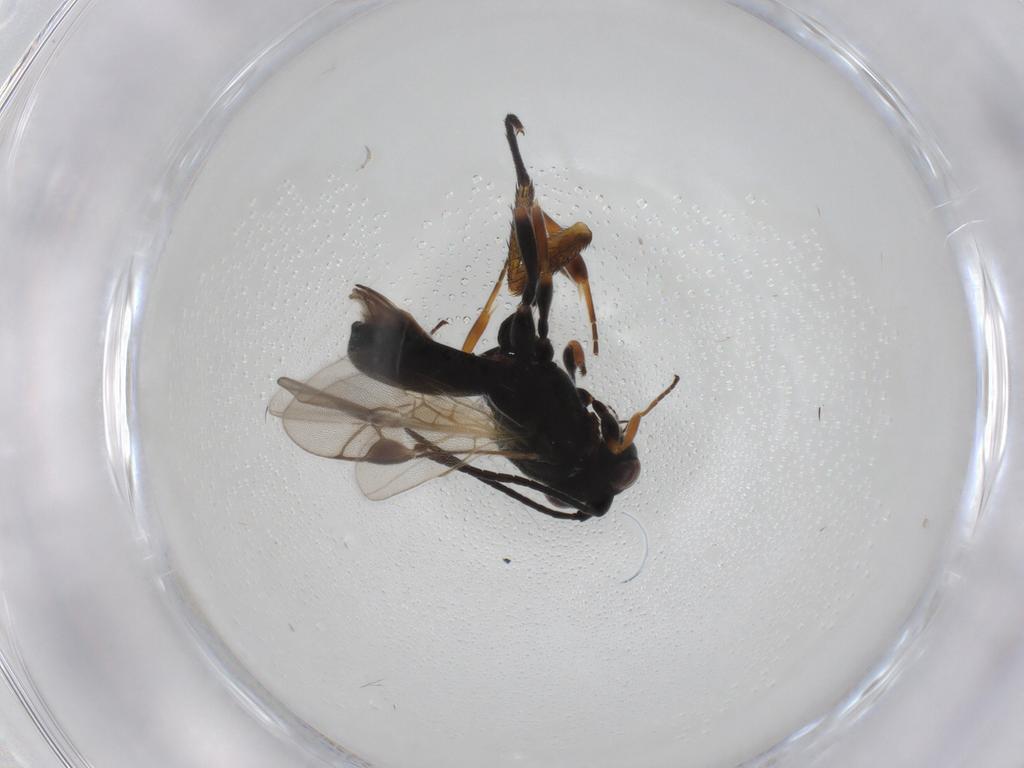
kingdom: Animalia
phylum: Arthropoda
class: Insecta
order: Hymenoptera
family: Braconidae
